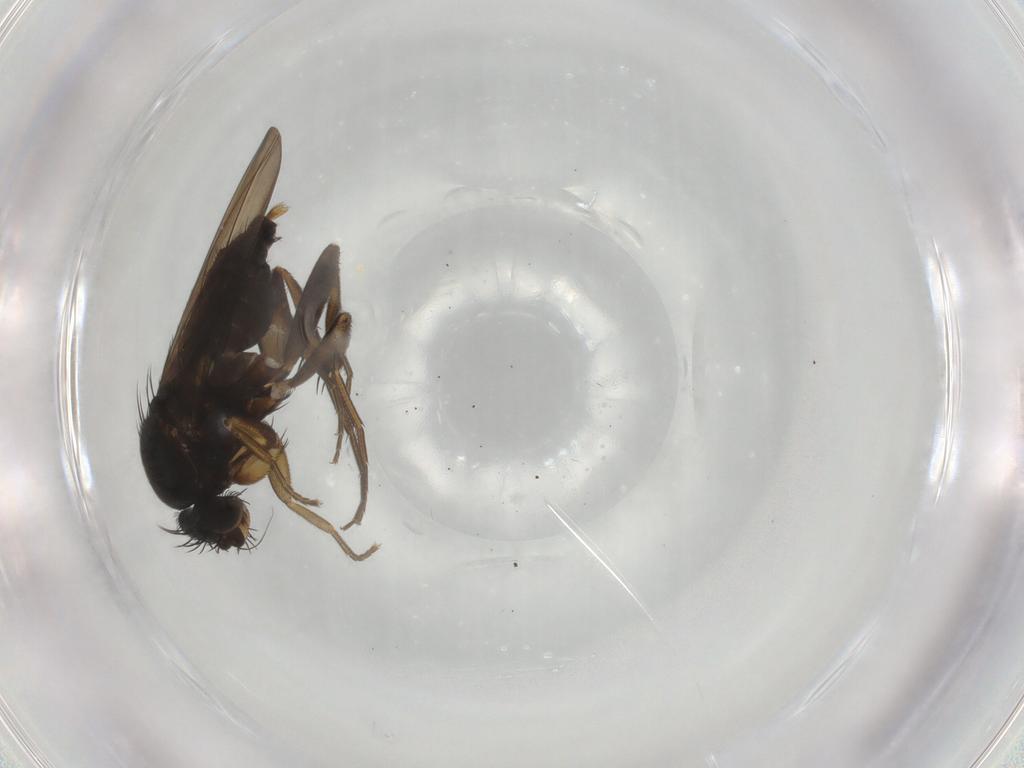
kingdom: Animalia
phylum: Arthropoda
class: Insecta
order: Diptera
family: Phoridae
